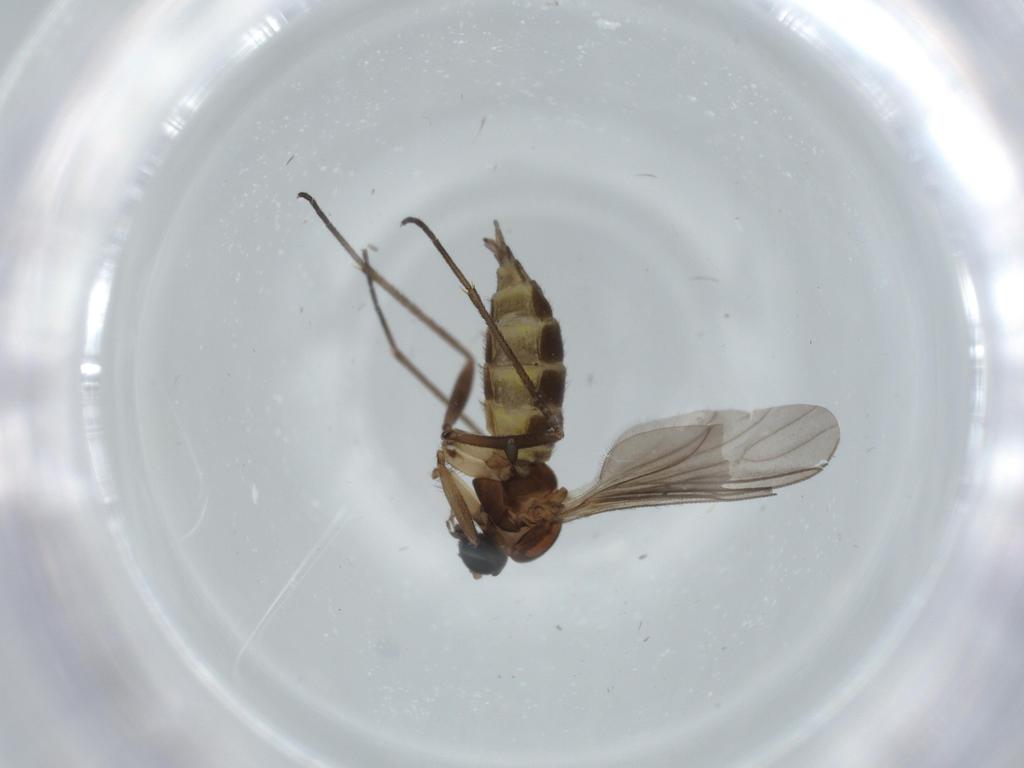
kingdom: Animalia
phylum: Arthropoda
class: Insecta
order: Diptera
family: Sciaridae
